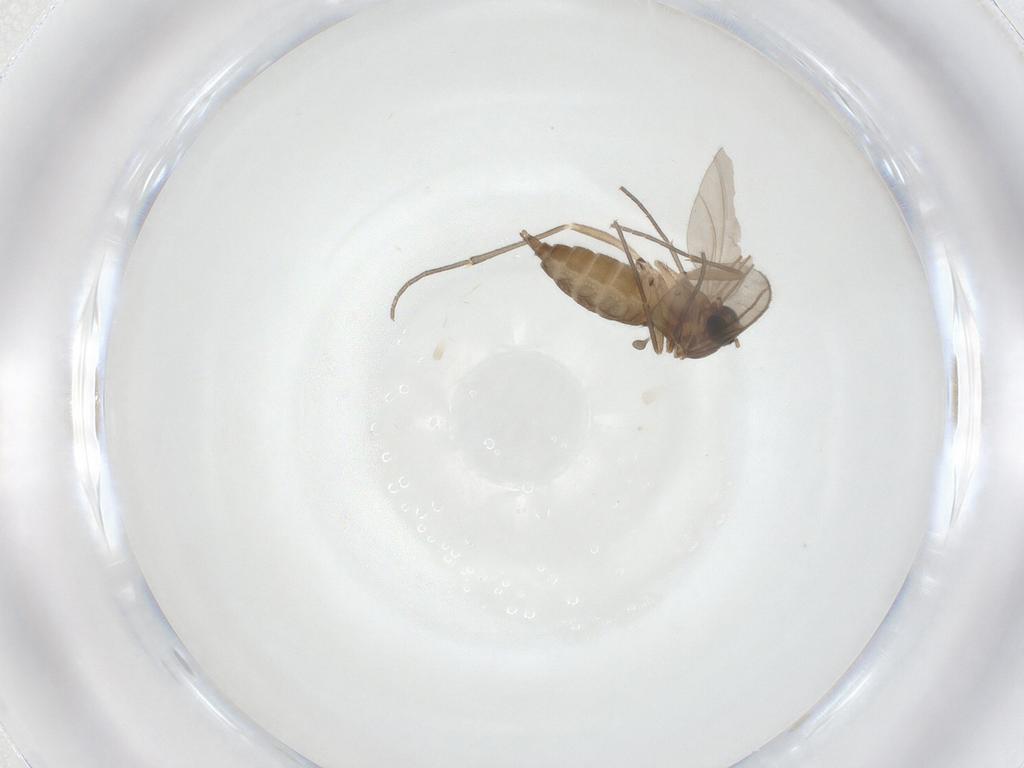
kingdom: Animalia
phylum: Arthropoda
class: Insecta
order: Diptera
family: Sciaridae
